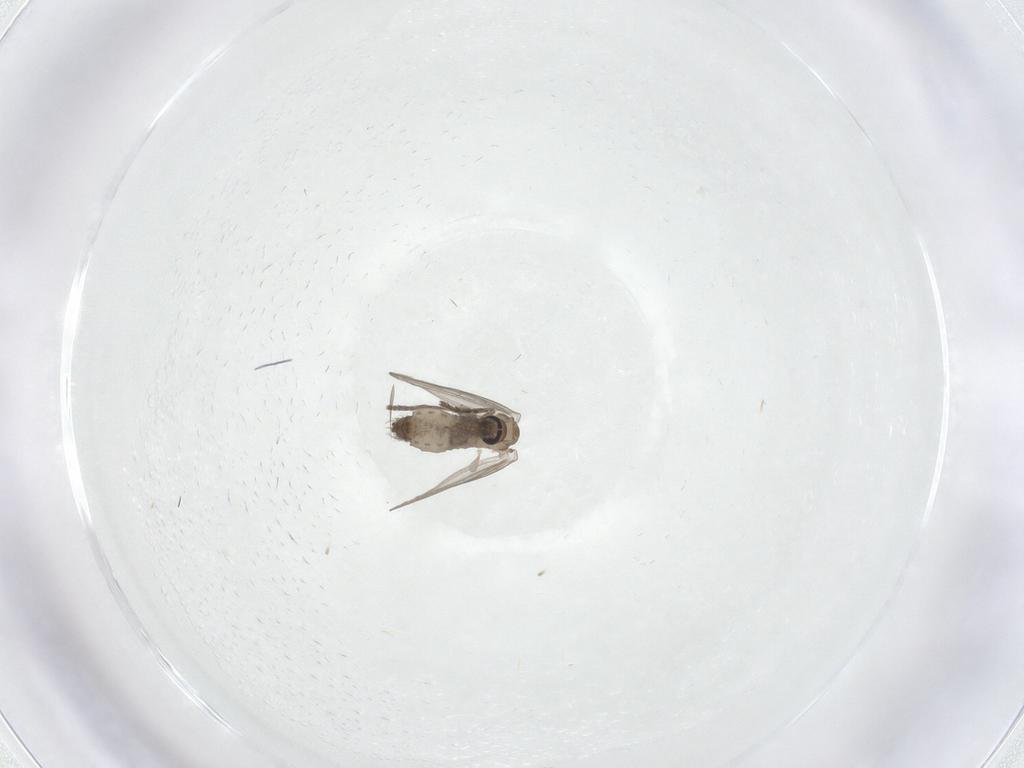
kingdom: Animalia
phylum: Arthropoda
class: Insecta
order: Diptera
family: Psychodidae
